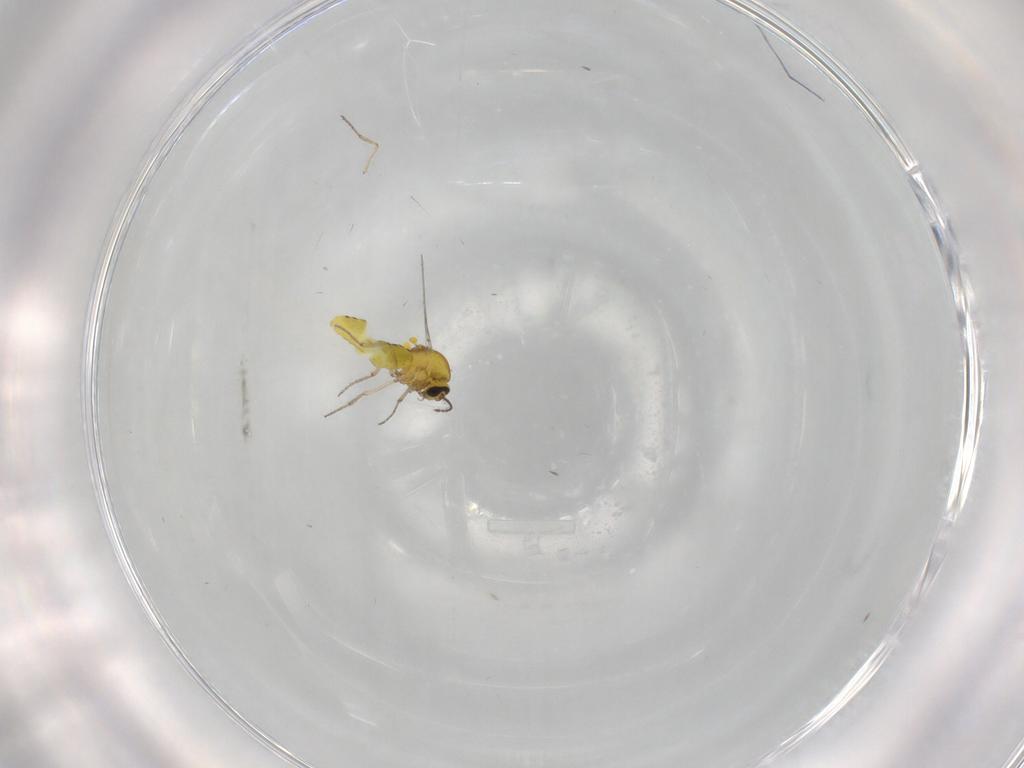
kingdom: Animalia
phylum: Arthropoda
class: Insecta
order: Diptera
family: Ceratopogonidae
